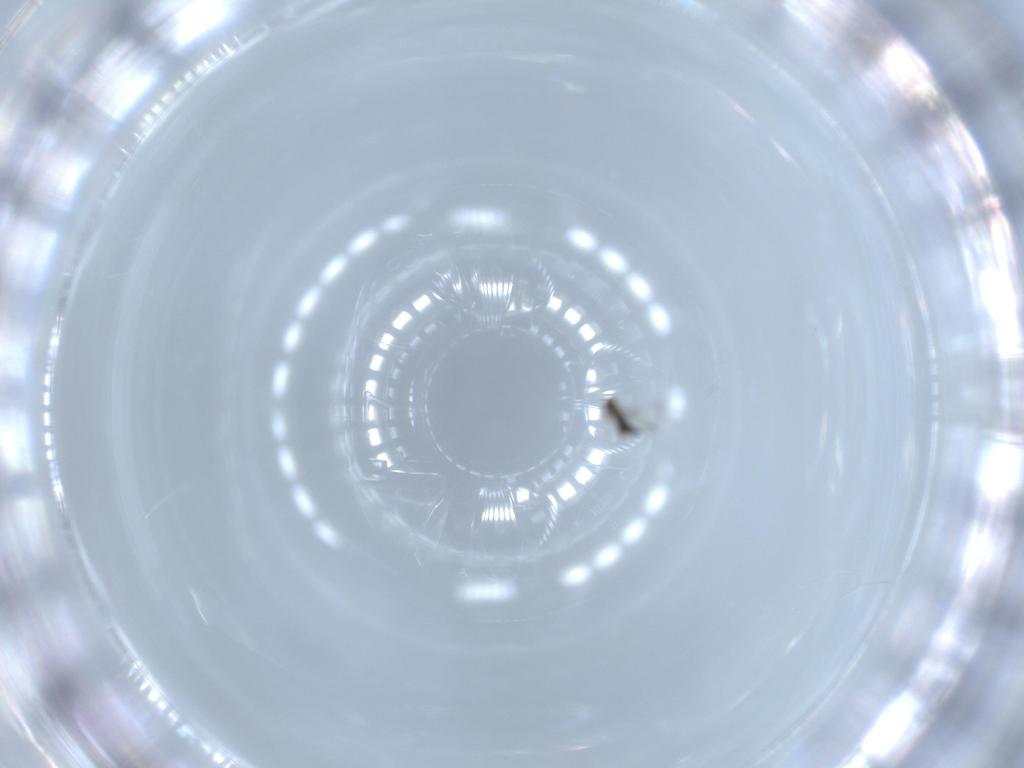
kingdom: Animalia
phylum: Arthropoda
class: Insecta
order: Hymenoptera
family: Signiphoridae
